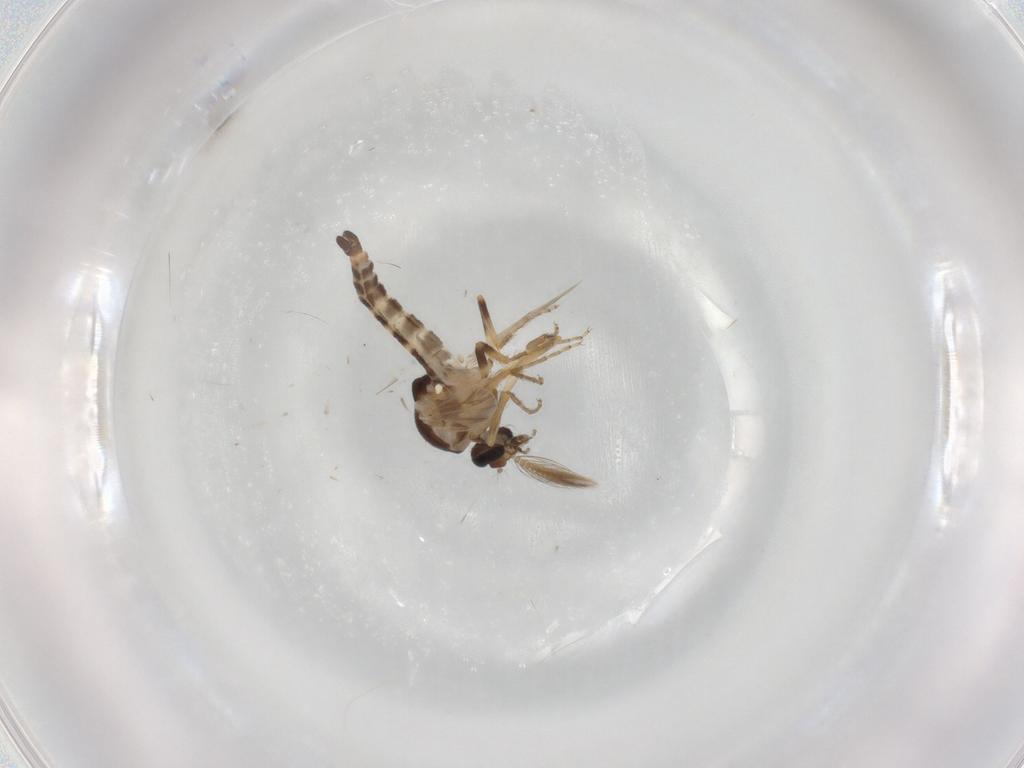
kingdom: Animalia
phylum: Arthropoda
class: Insecta
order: Diptera
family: Ceratopogonidae
